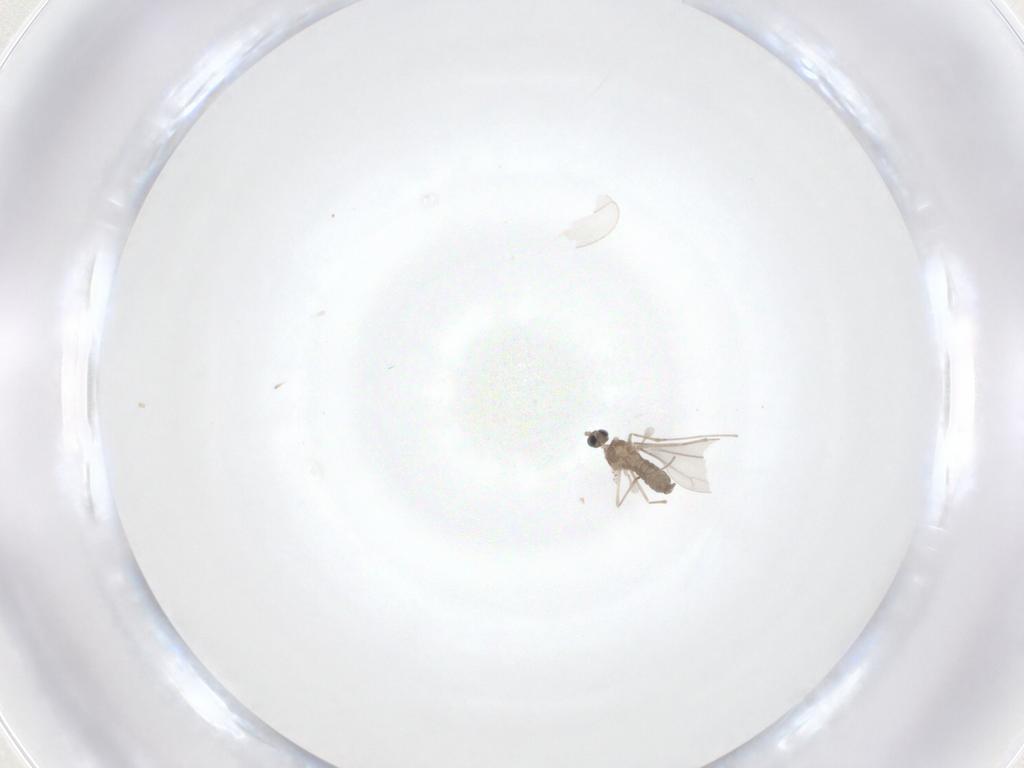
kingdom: Animalia
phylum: Arthropoda
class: Insecta
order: Diptera
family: Cecidomyiidae
